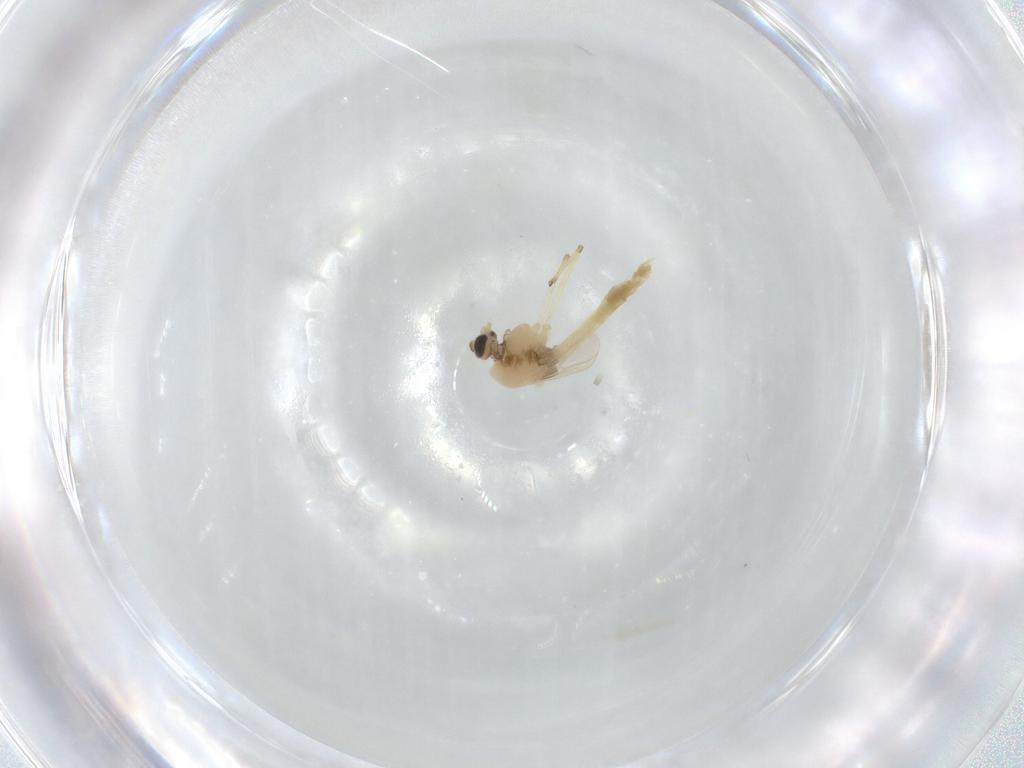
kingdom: Animalia
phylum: Arthropoda
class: Insecta
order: Diptera
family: Chironomidae
